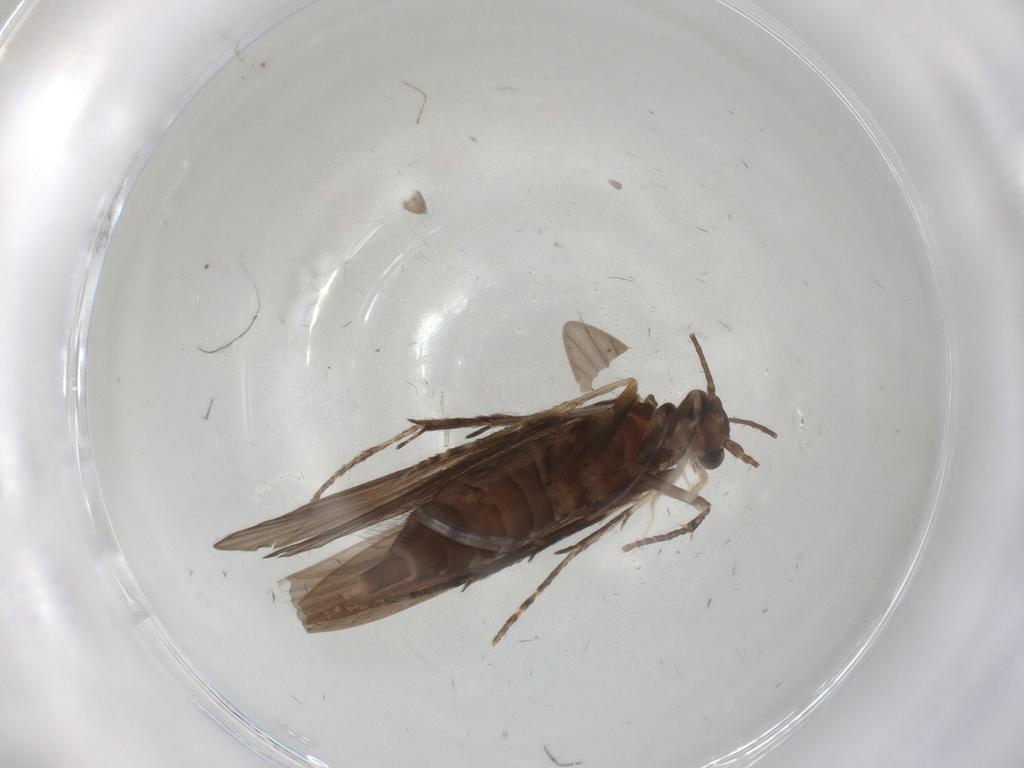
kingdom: Animalia
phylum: Arthropoda
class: Insecta
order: Trichoptera
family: Xiphocentronidae
